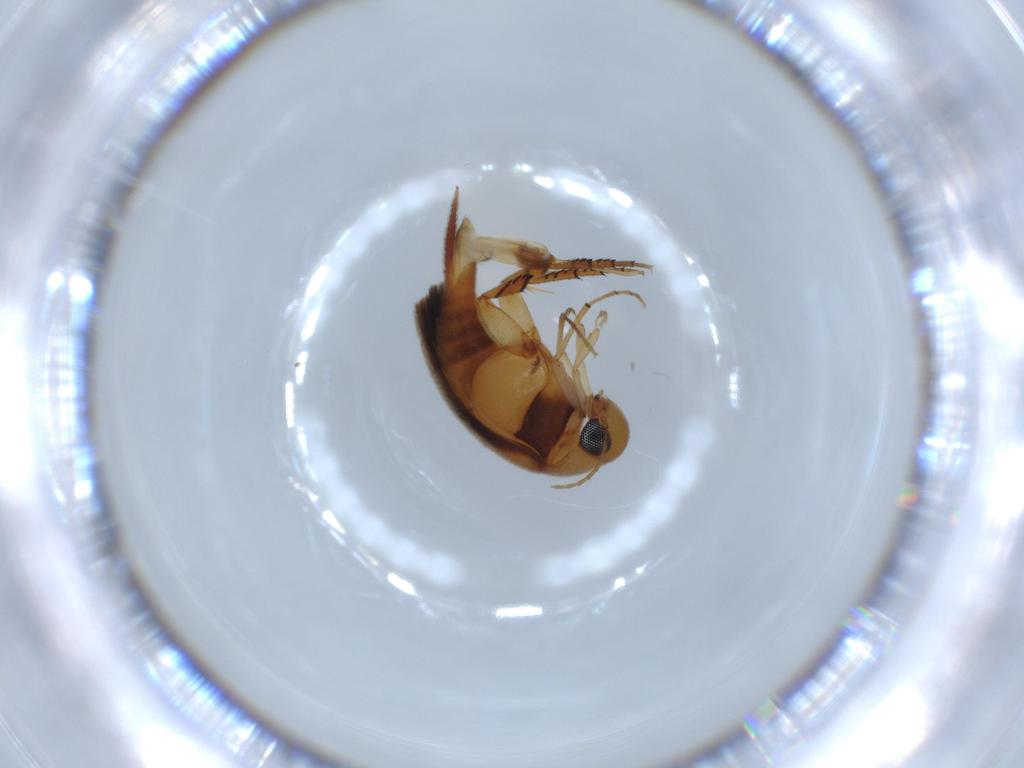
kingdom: Animalia
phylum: Arthropoda
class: Insecta
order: Coleoptera
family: Mordellidae
